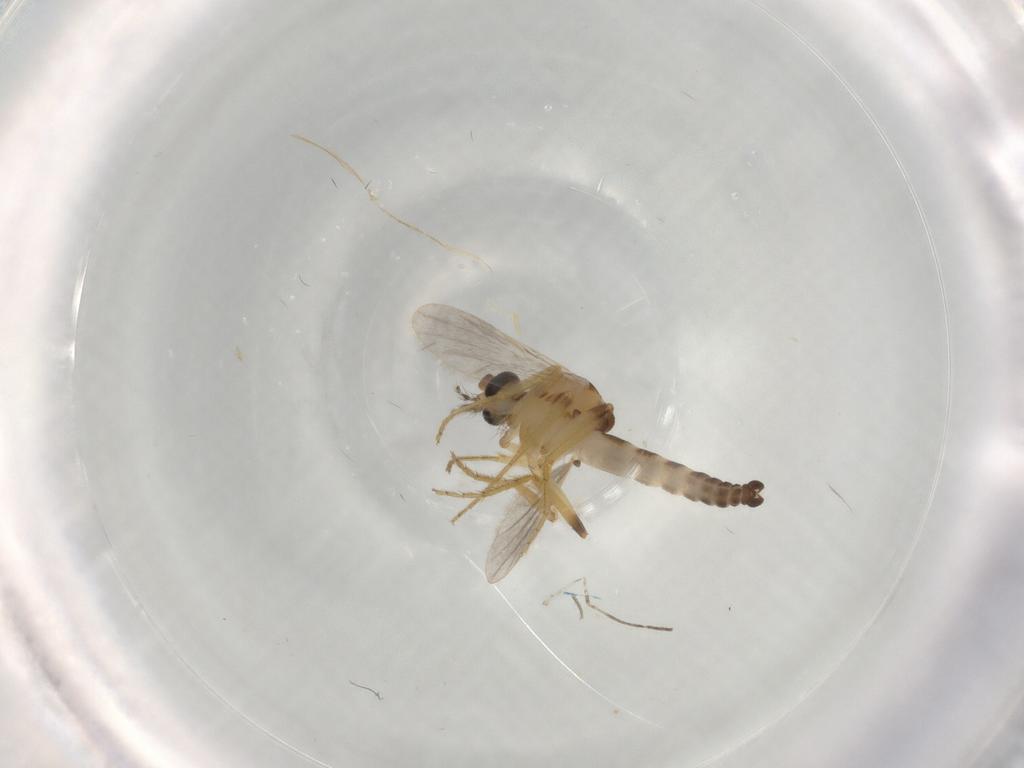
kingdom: Animalia
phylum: Arthropoda
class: Insecta
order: Diptera
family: Ceratopogonidae
